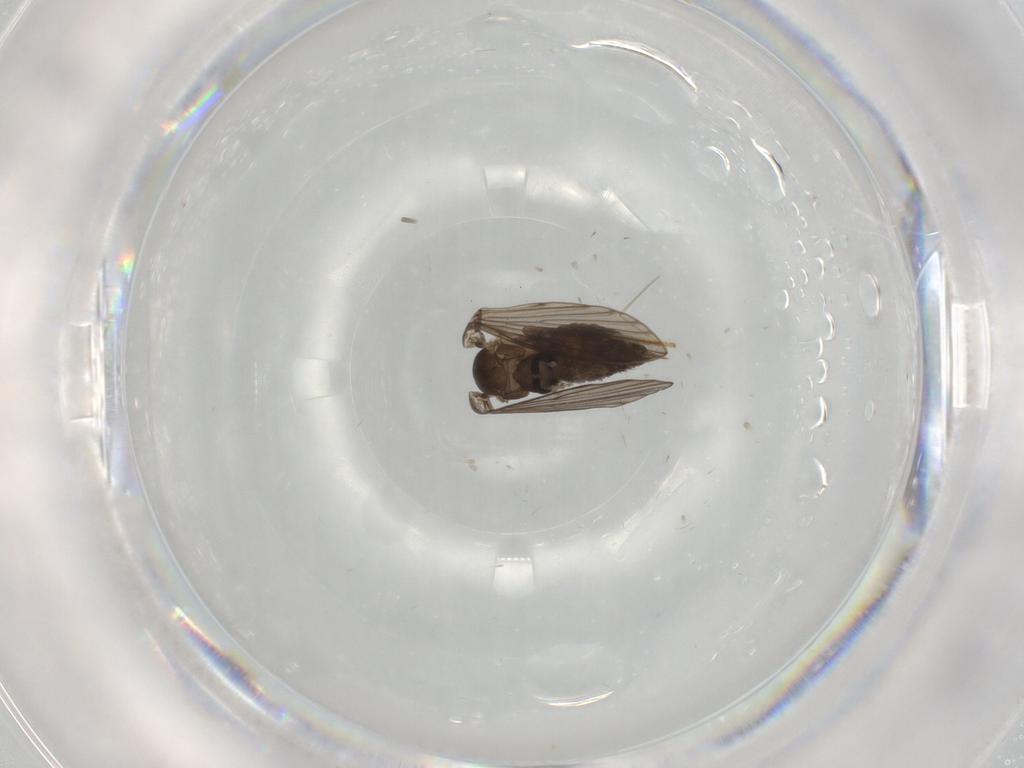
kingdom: Animalia
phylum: Arthropoda
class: Insecta
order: Diptera
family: Psychodidae
